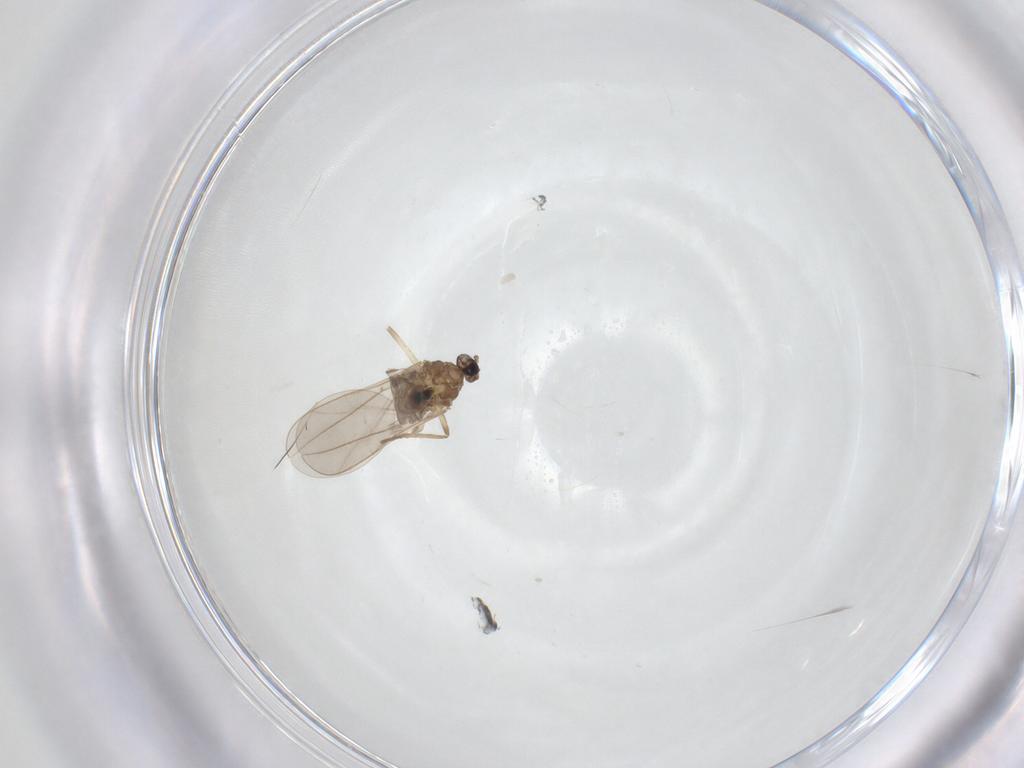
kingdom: Animalia
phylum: Arthropoda
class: Insecta
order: Diptera
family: Cecidomyiidae
